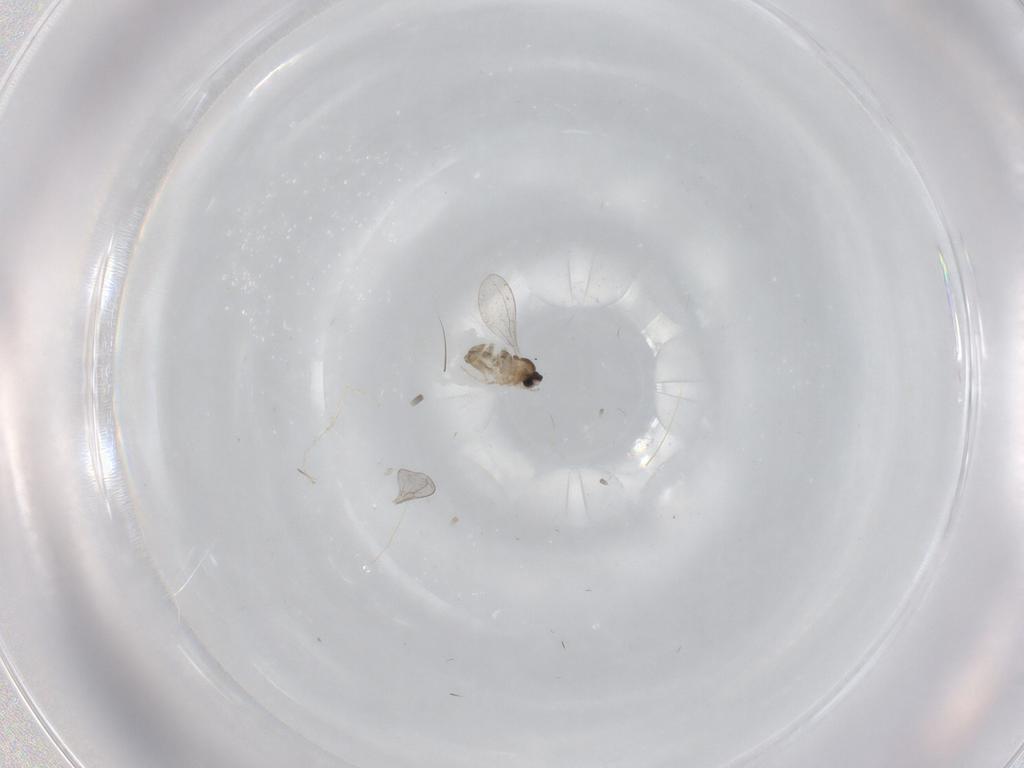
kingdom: Animalia
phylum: Arthropoda
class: Insecta
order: Diptera
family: Cecidomyiidae
